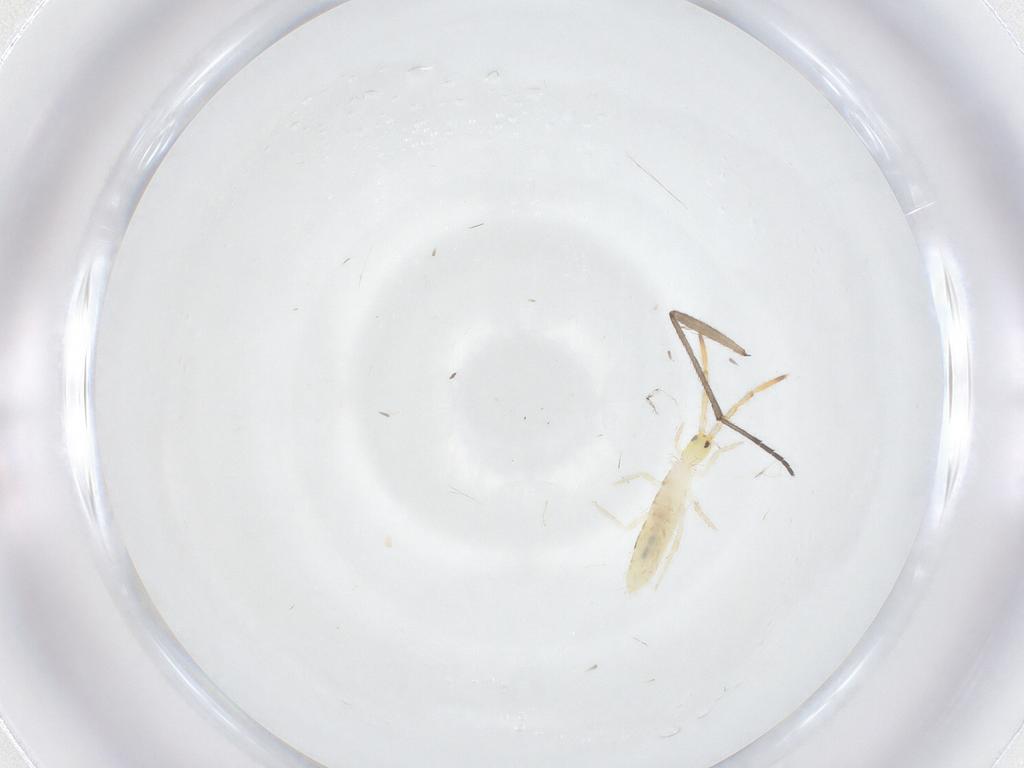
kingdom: Animalia
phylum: Arthropoda
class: Collembola
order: Entomobryomorpha
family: Entomobryidae
